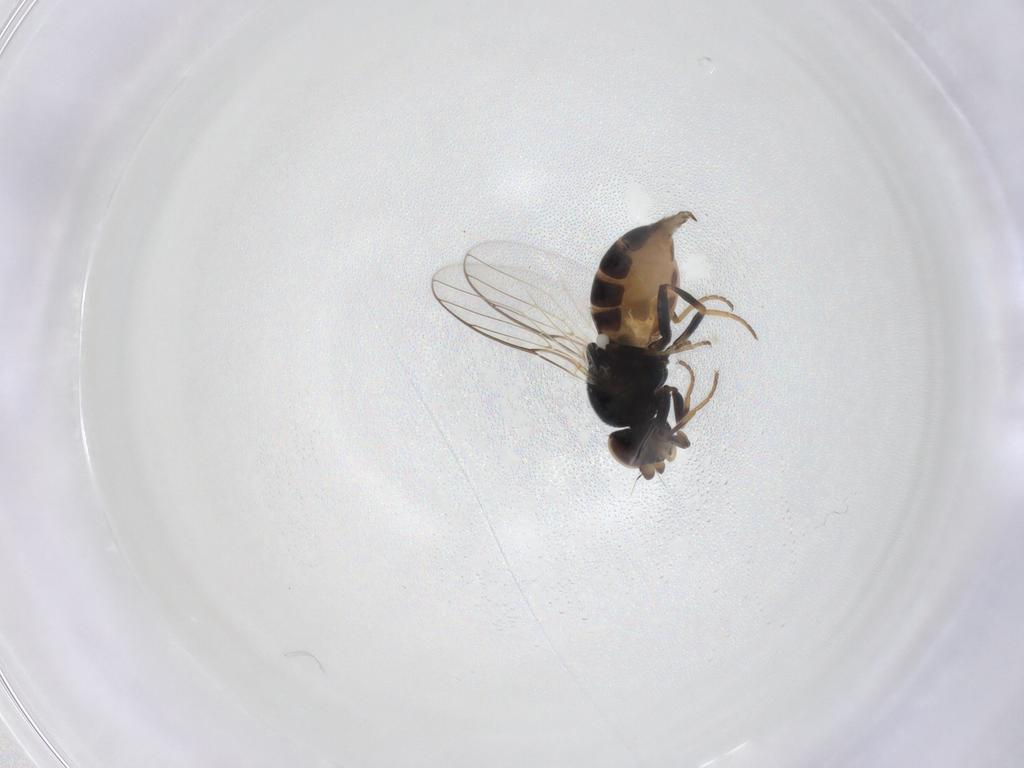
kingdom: Animalia
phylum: Arthropoda
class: Insecta
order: Diptera
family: Chloropidae
